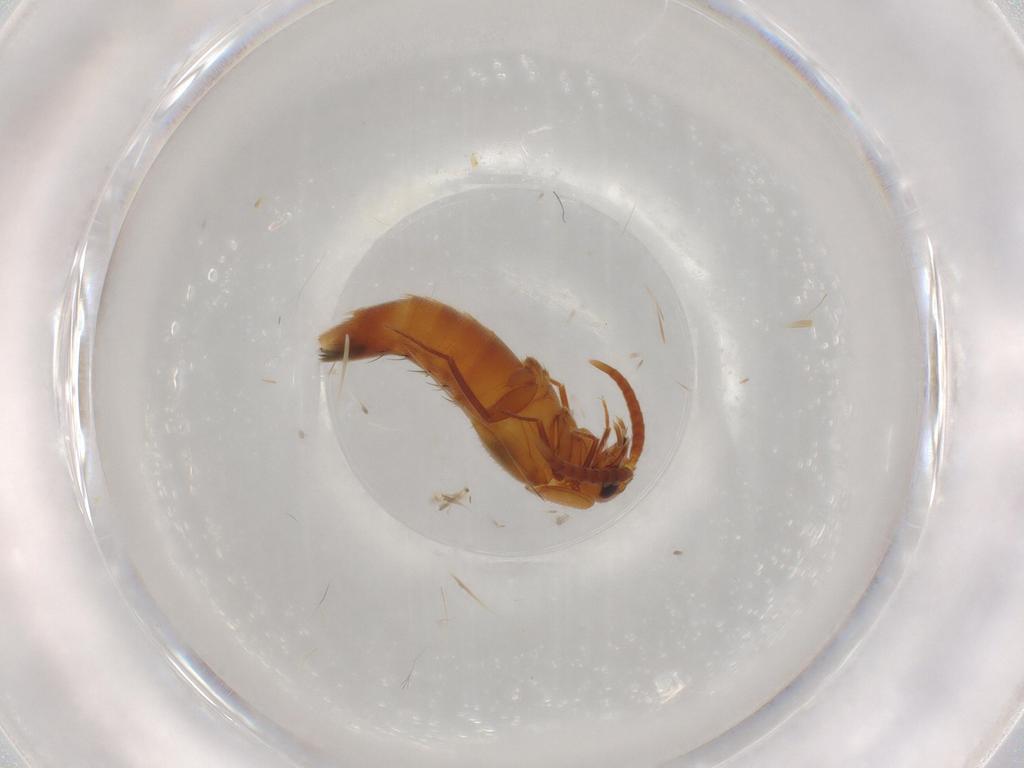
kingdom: Animalia
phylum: Arthropoda
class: Insecta
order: Coleoptera
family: Staphylinidae
